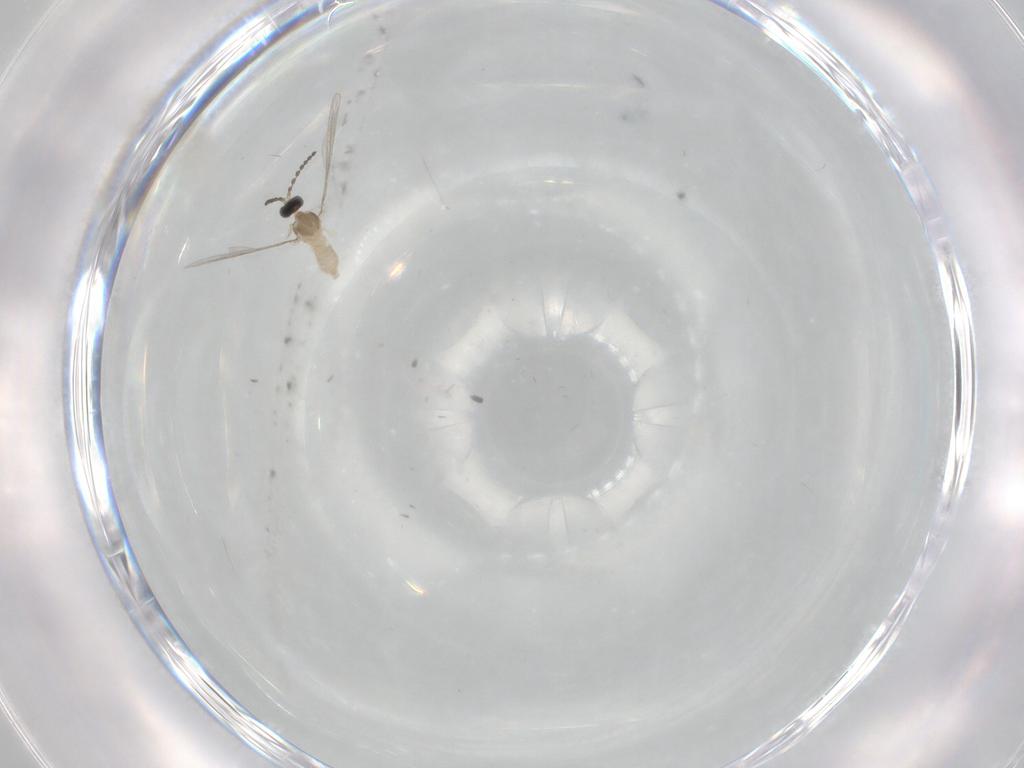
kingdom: Animalia
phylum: Arthropoda
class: Insecta
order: Diptera
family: Cecidomyiidae
